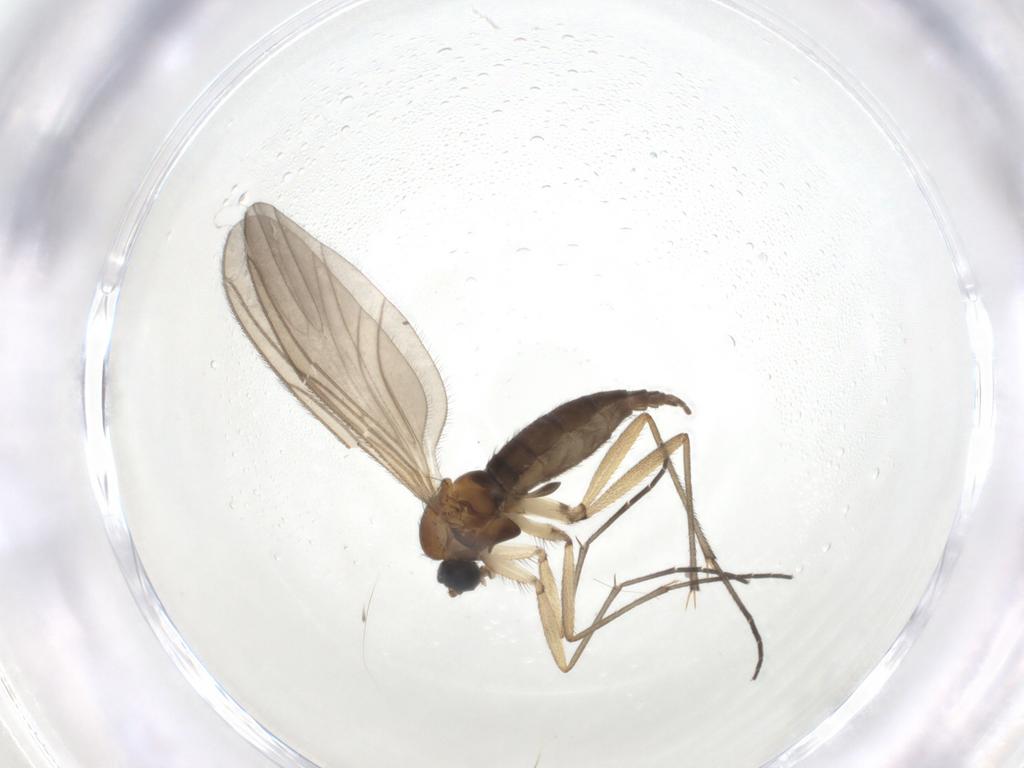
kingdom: Animalia
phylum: Arthropoda
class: Insecta
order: Diptera
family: Sciaridae
